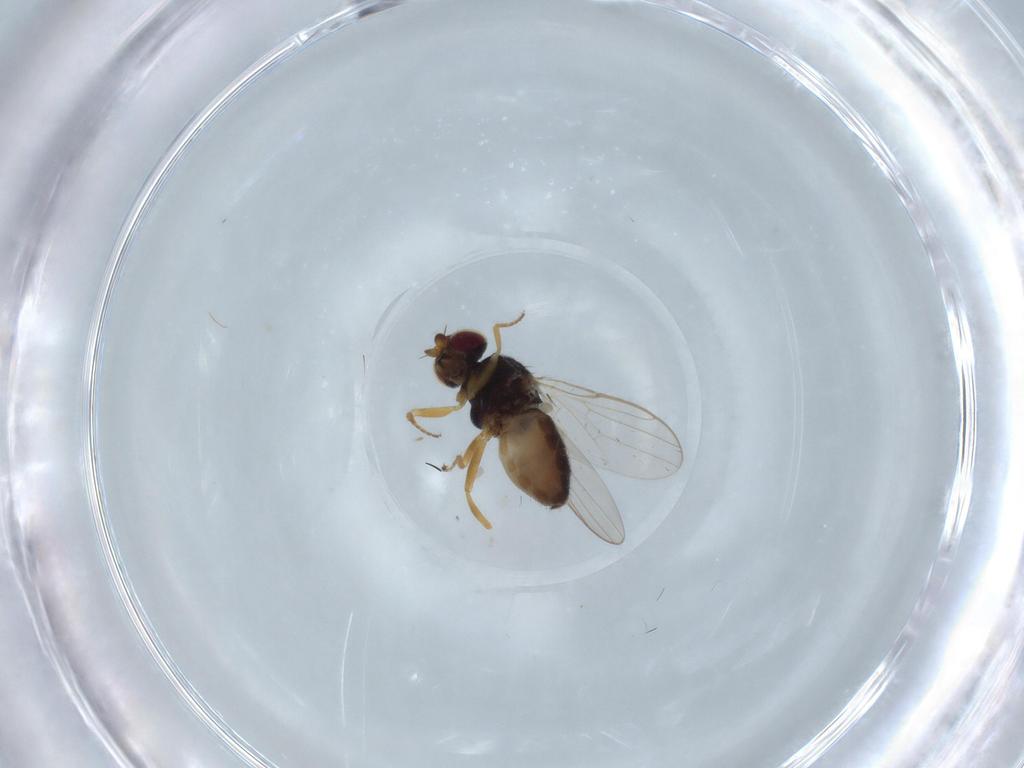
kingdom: Animalia
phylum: Arthropoda
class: Insecta
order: Diptera
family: Chloropidae
